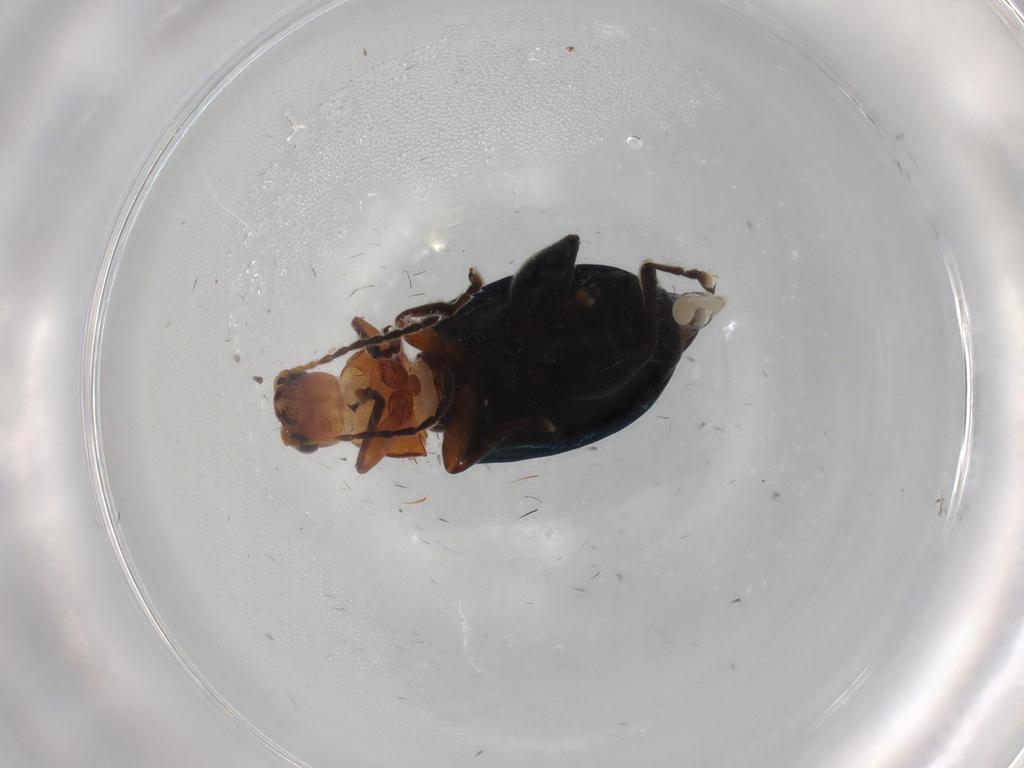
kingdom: Animalia
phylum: Arthropoda
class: Insecta
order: Coleoptera
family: Chrysomelidae
